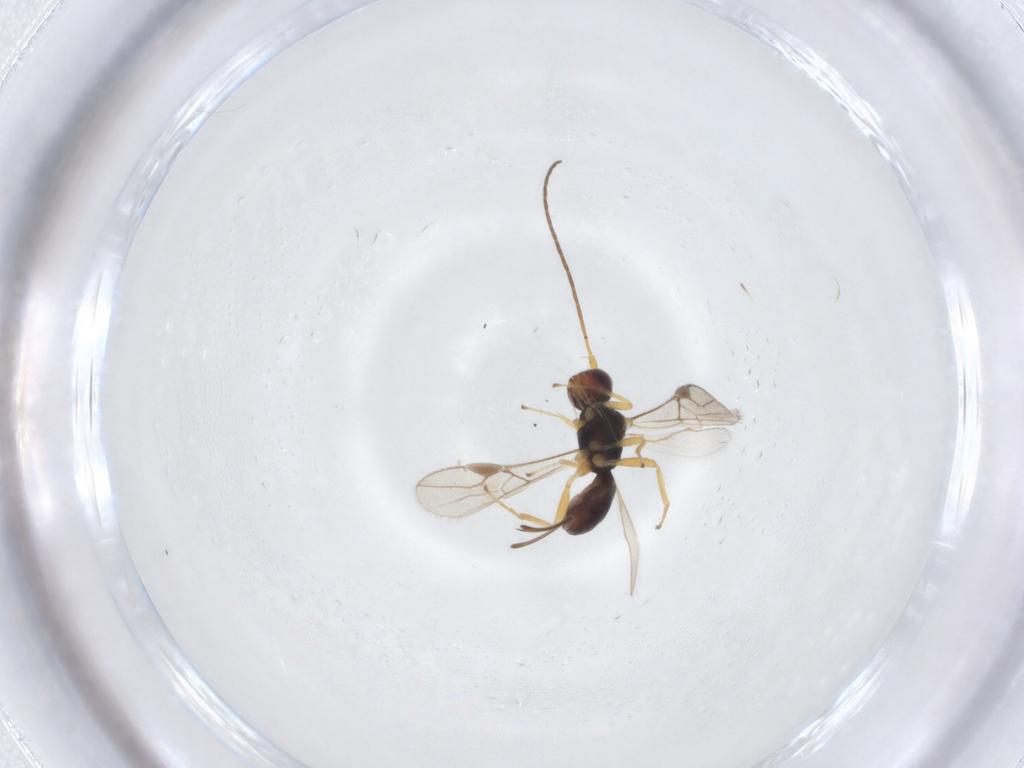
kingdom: Animalia
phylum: Arthropoda
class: Insecta
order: Hymenoptera
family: Braconidae
